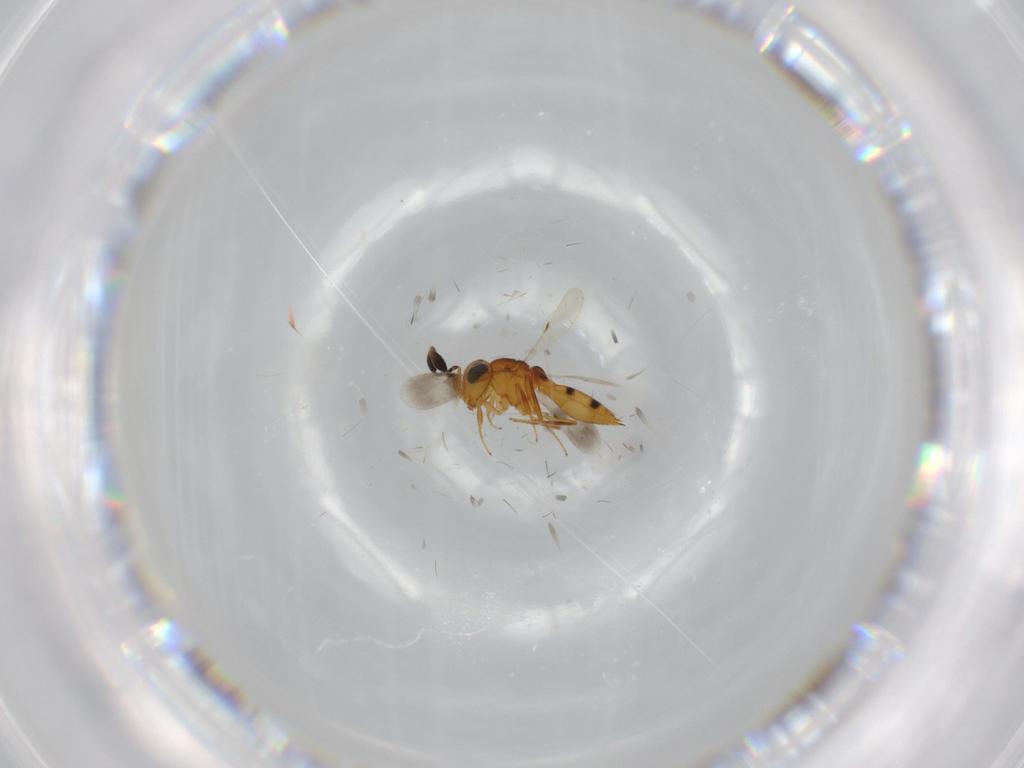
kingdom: Animalia
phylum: Arthropoda
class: Insecta
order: Hymenoptera
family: Scelionidae
